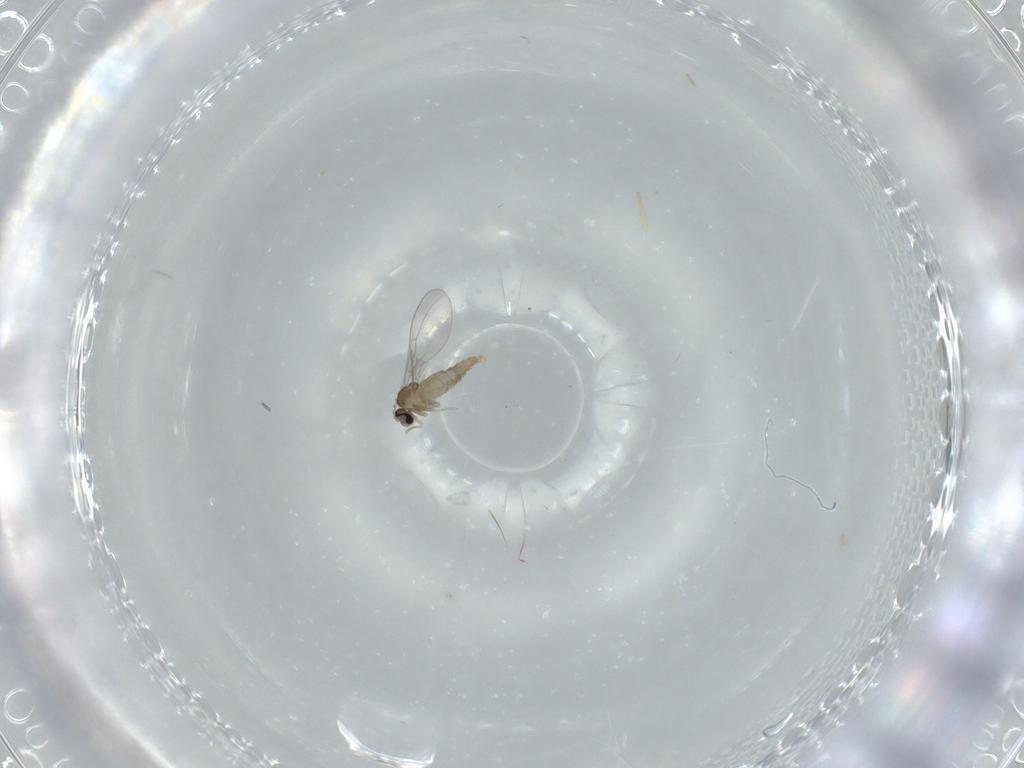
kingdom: Animalia
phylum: Arthropoda
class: Insecta
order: Diptera
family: Cecidomyiidae
